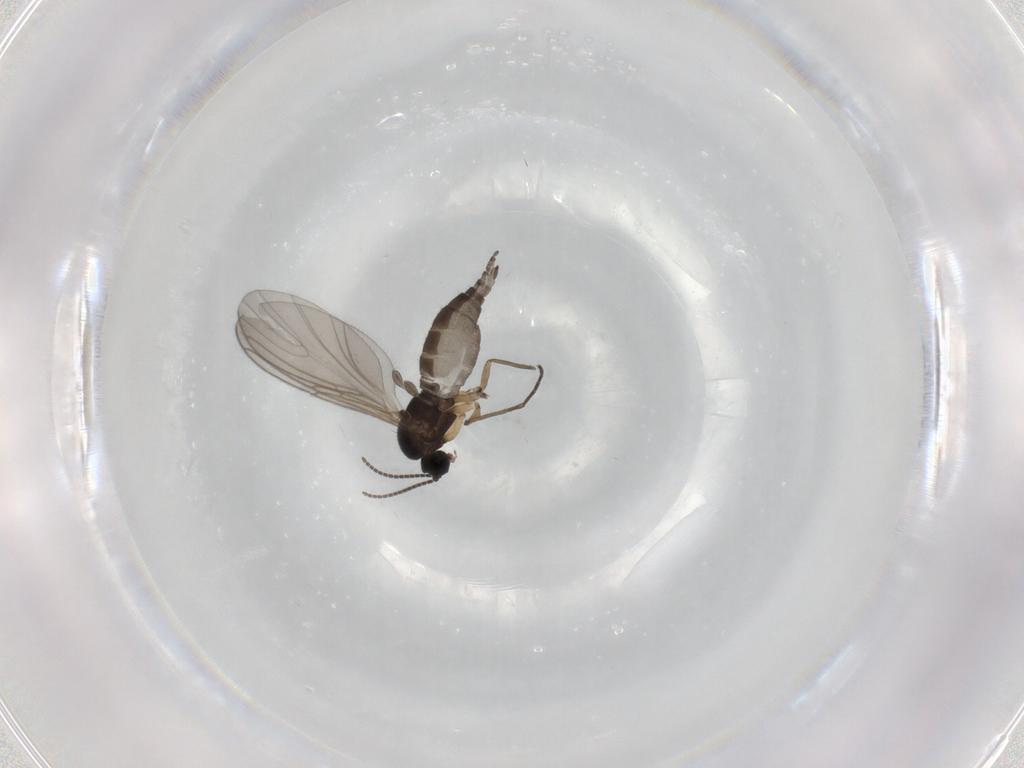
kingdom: Animalia
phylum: Arthropoda
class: Insecta
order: Diptera
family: Sciaridae
